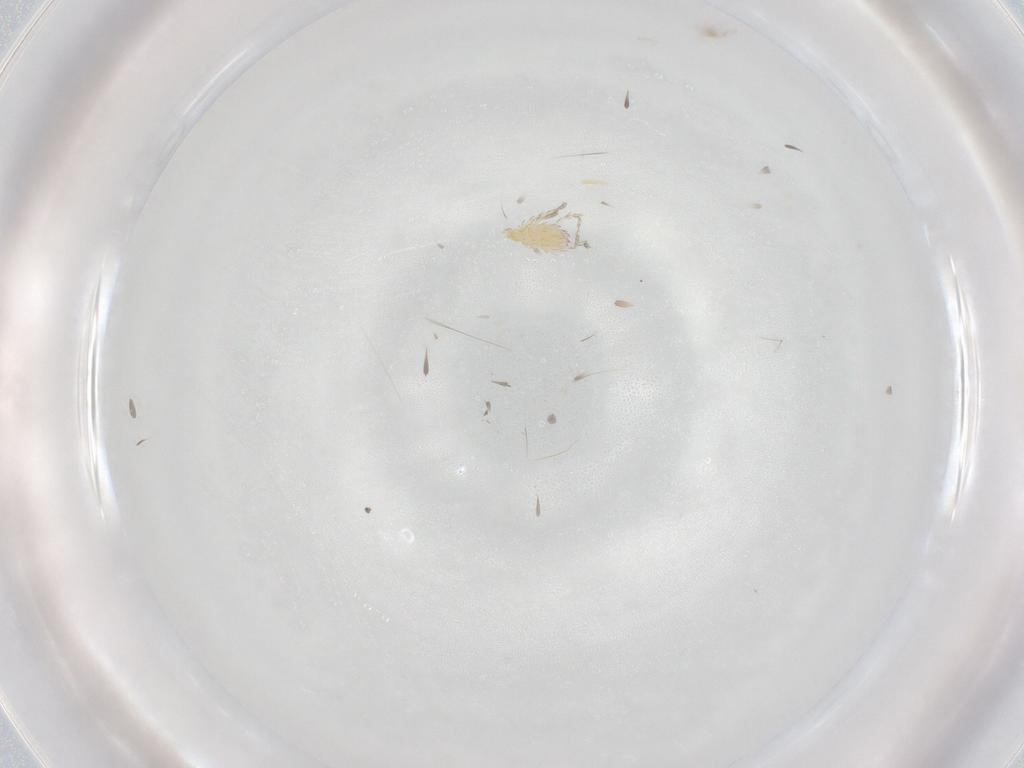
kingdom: Animalia
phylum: Arthropoda
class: Arachnida
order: Araneae
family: Anyphaenidae
